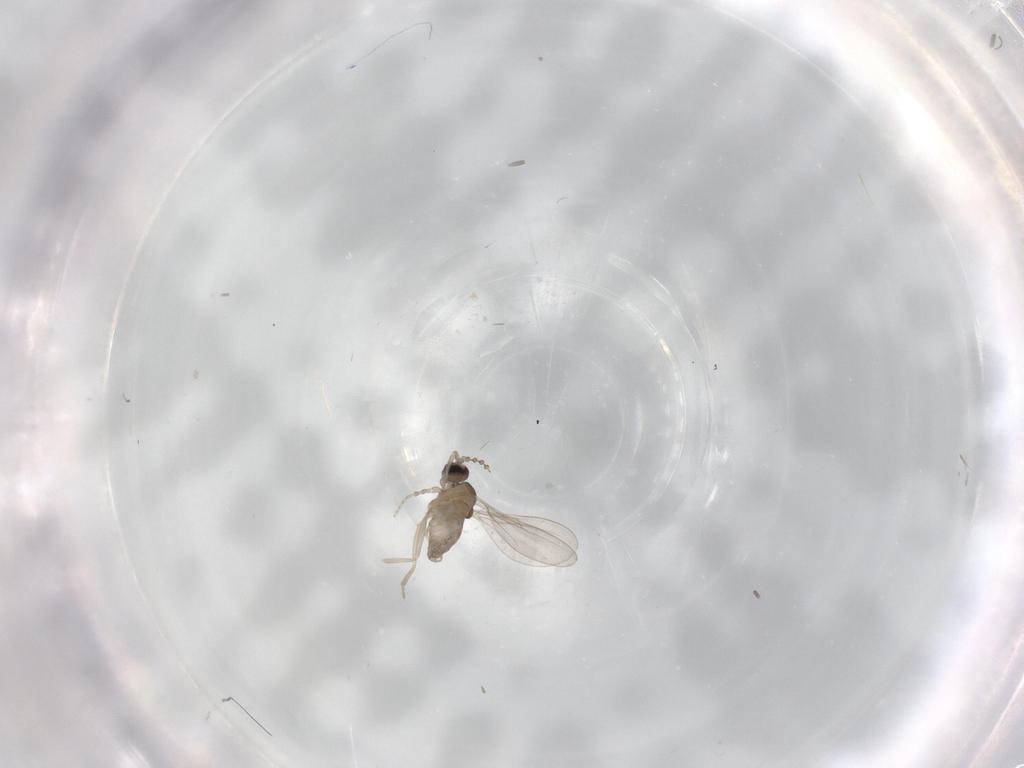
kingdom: Animalia
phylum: Arthropoda
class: Insecta
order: Diptera
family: Cecidomyiidae
